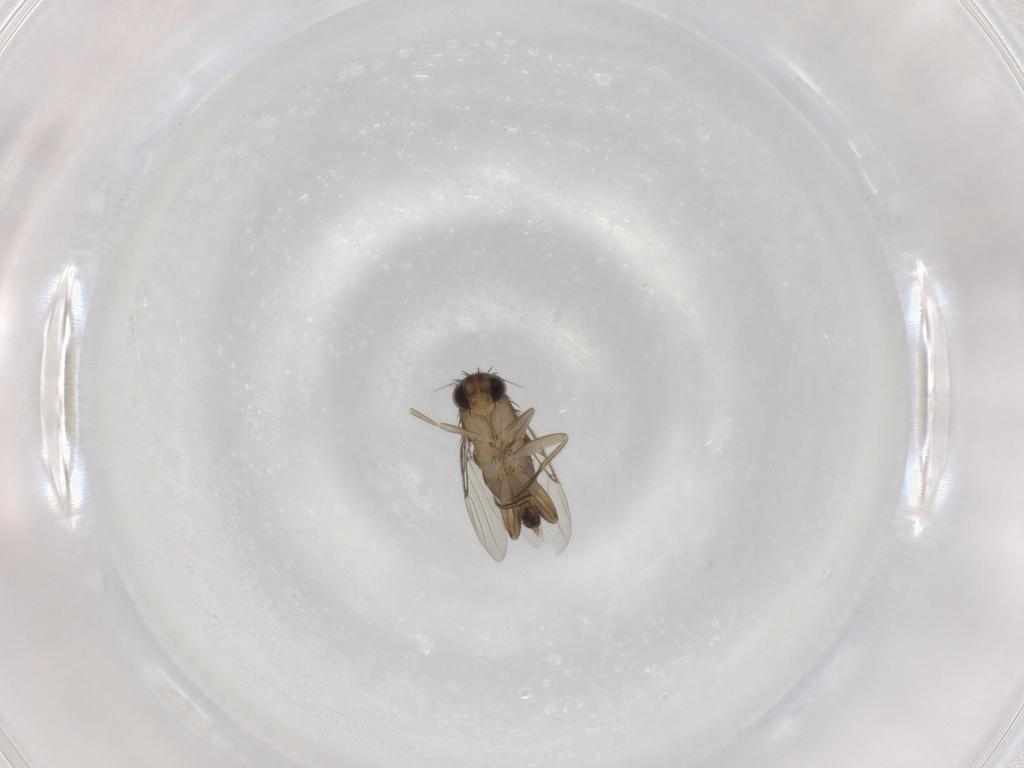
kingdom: Animalia
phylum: Arthropoda
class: Insecta
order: Diptera
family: Phoridae
